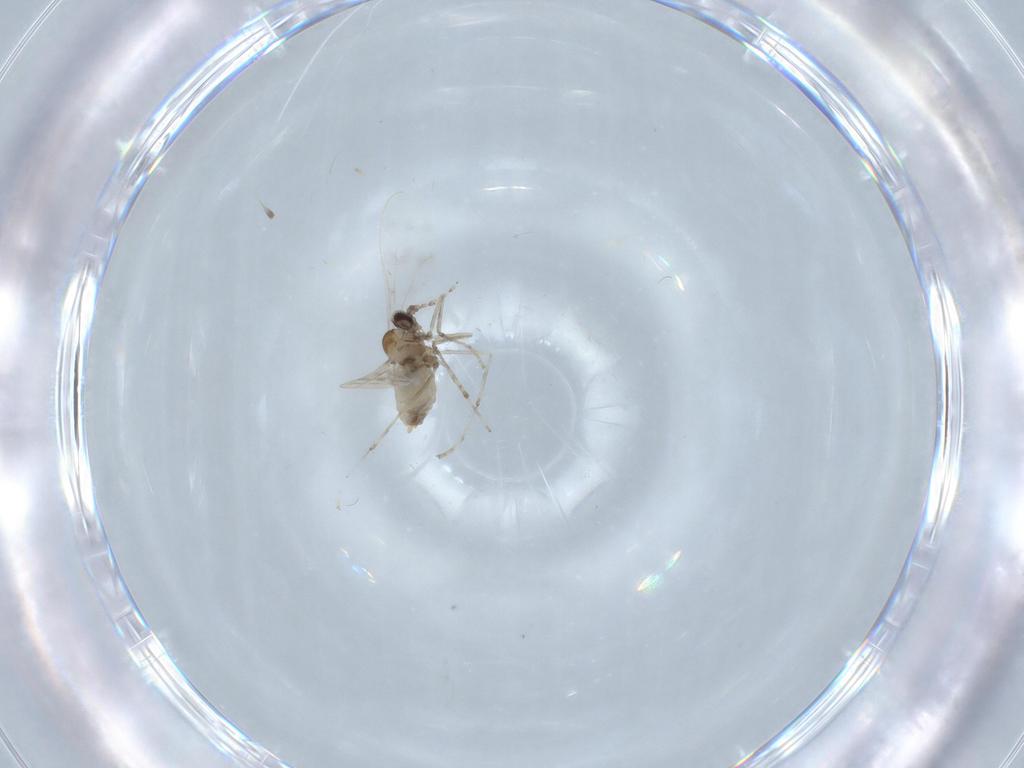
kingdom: Animalia
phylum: Arthropoda
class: Insecta
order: Diptera
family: Cecidomyiidae
